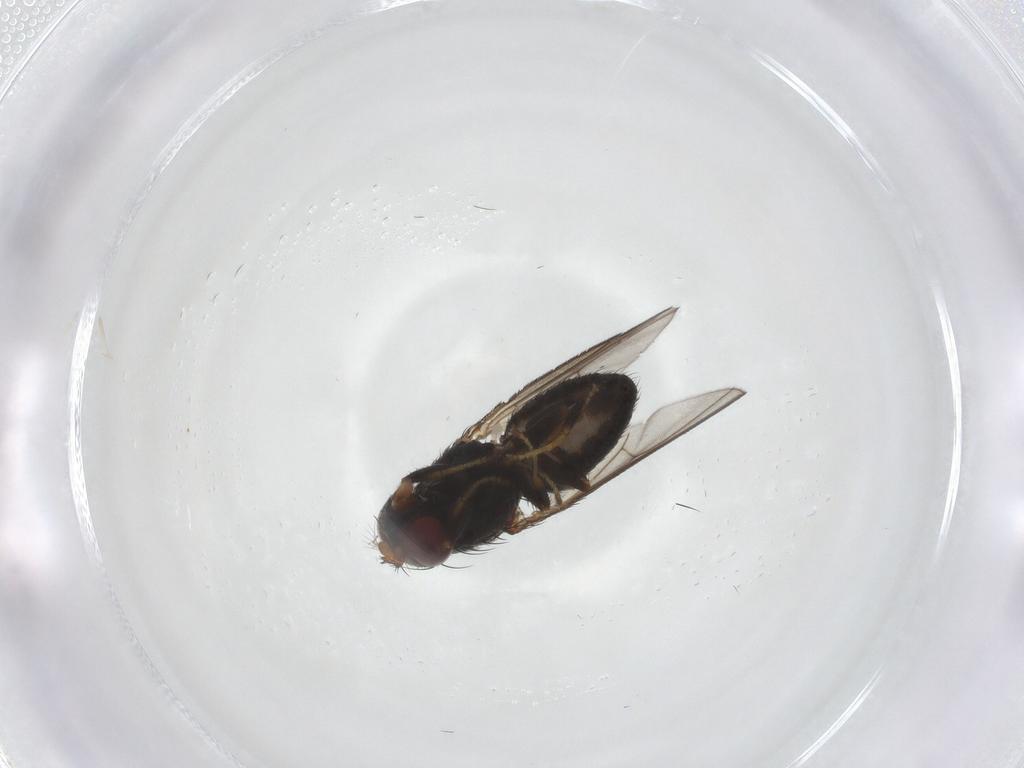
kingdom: Animalia
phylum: Arthropoda
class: Insecta
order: Diptera
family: Ephydridae
